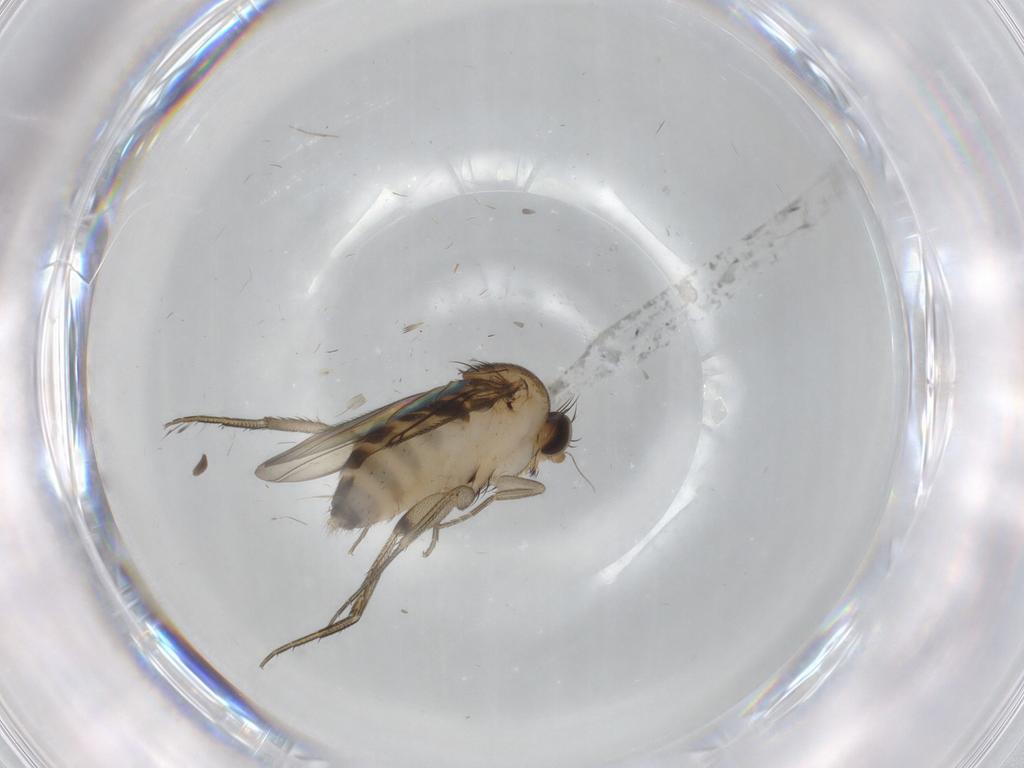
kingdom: Animalia
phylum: Arthropoda
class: Insecta
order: Diptera
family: Phoridae
